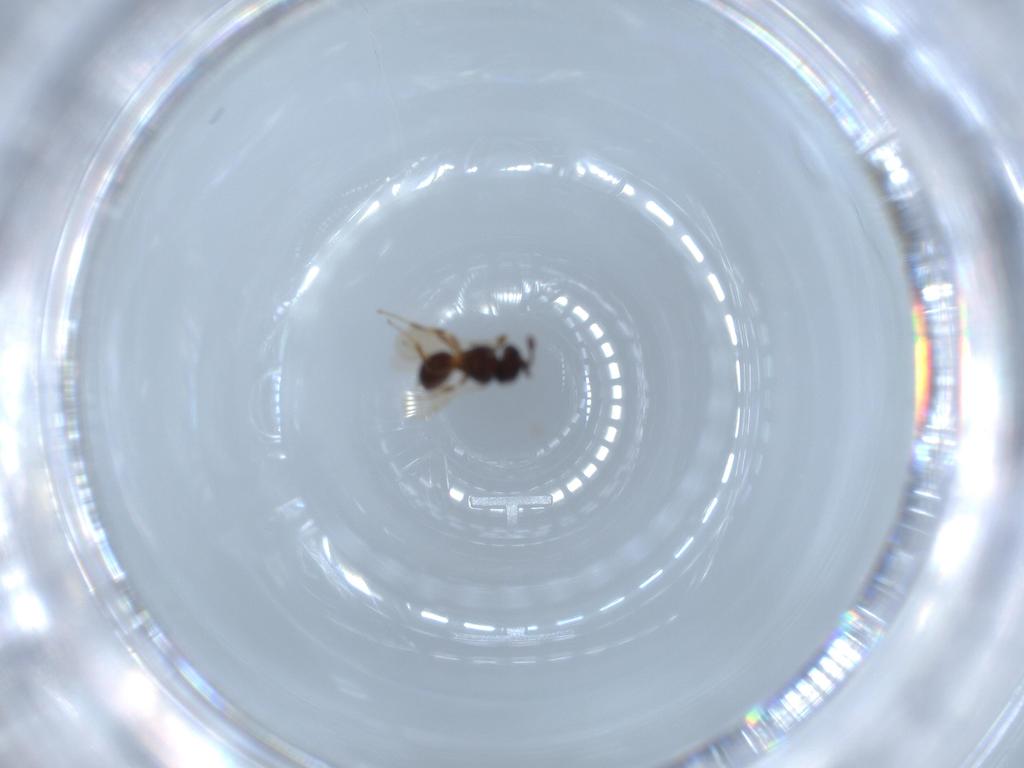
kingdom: Animalia
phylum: Arthropoda
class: Insecta
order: Hymenoptera
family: Scelionidae
